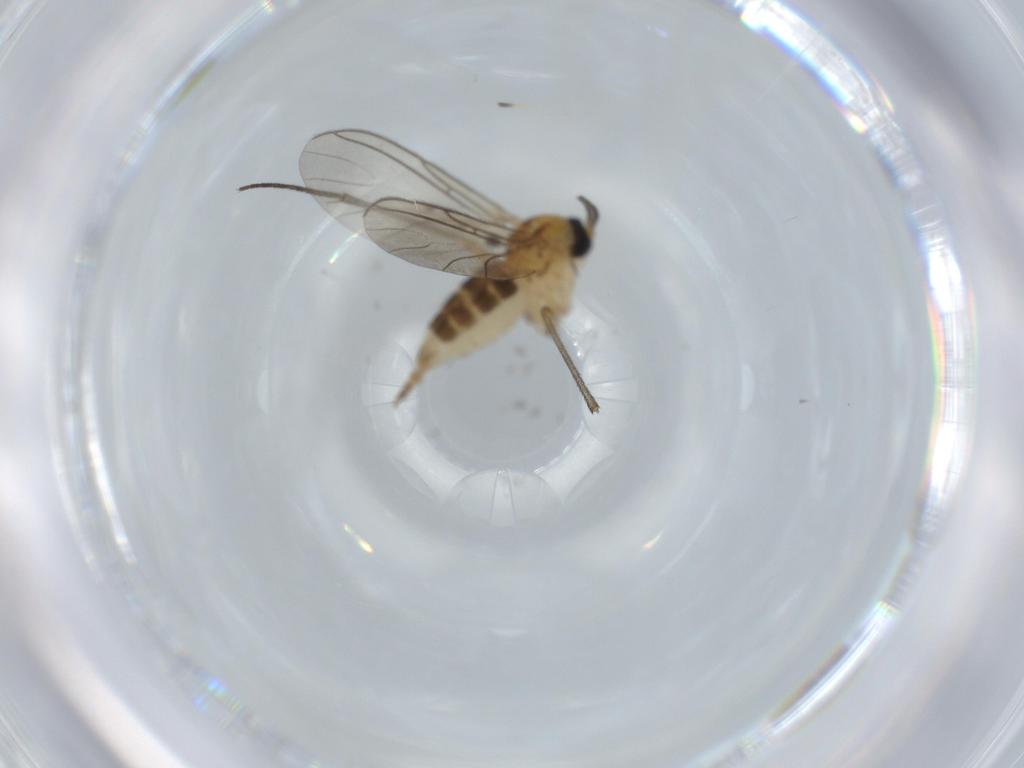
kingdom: Animalia
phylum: Arthropoda
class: Insecta
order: Diptera
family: Sciaridae
